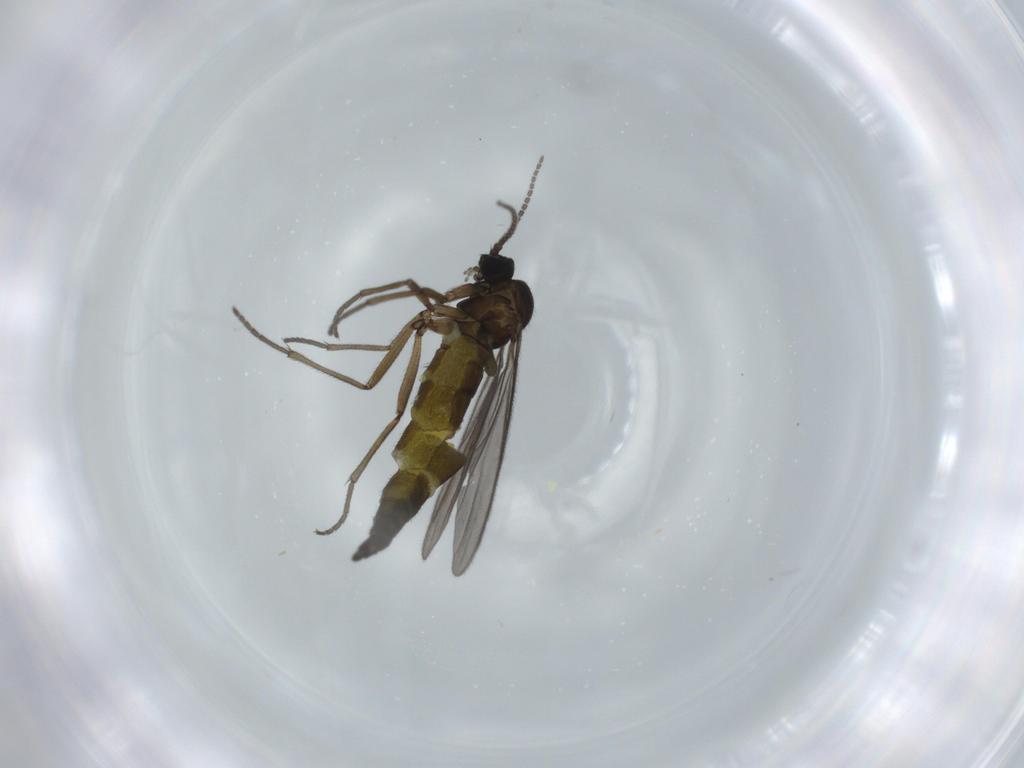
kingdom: Animalia
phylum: Arthropoda
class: Insecta
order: Diptera
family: Sciaridae
